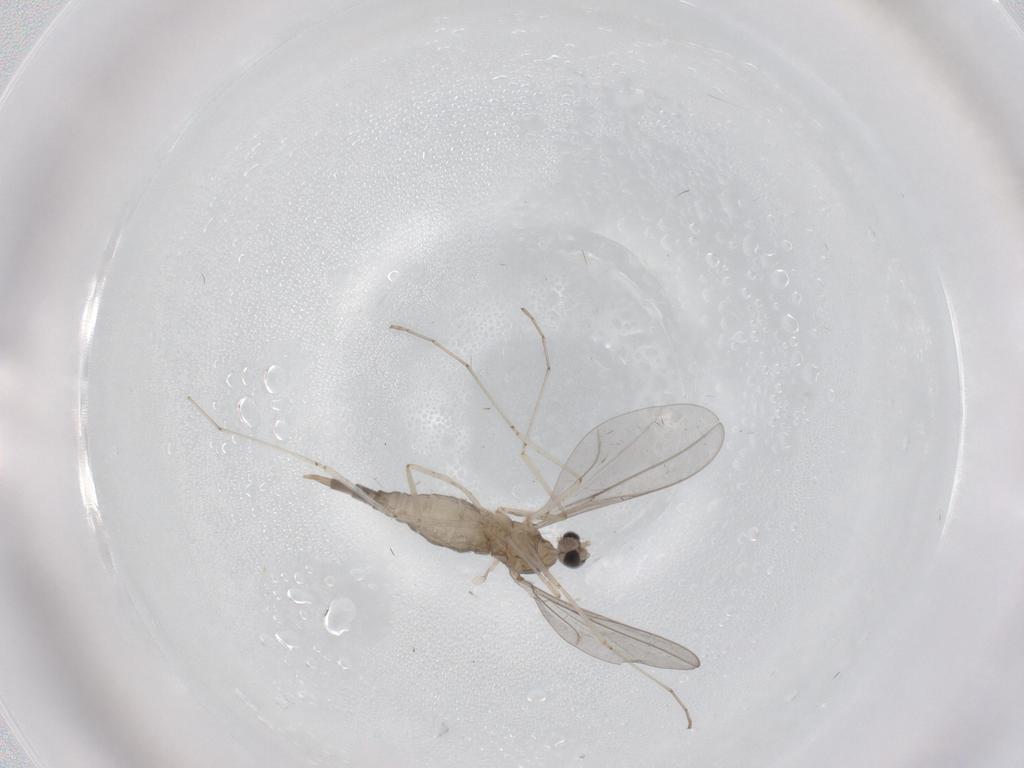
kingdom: Animalia
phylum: Arthropoda
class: Insecta
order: Diptera
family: Cecidomyiidae
